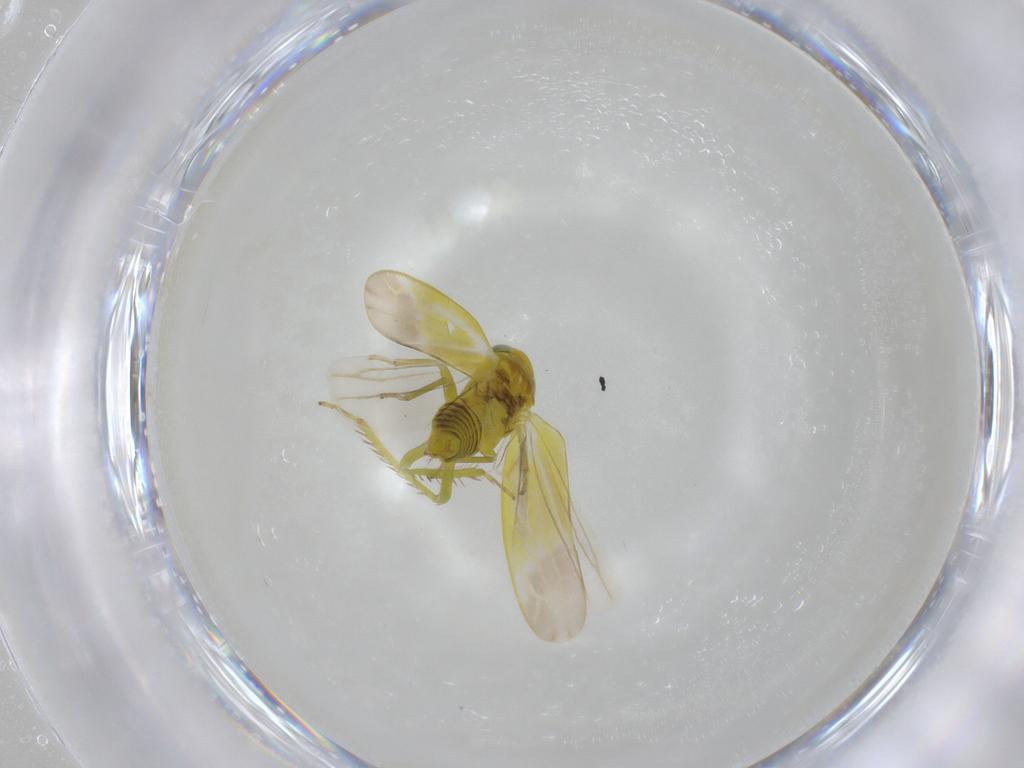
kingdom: Animalia
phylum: Arthropoda
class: Insecta
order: Hemiptera
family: Cicadellidae
